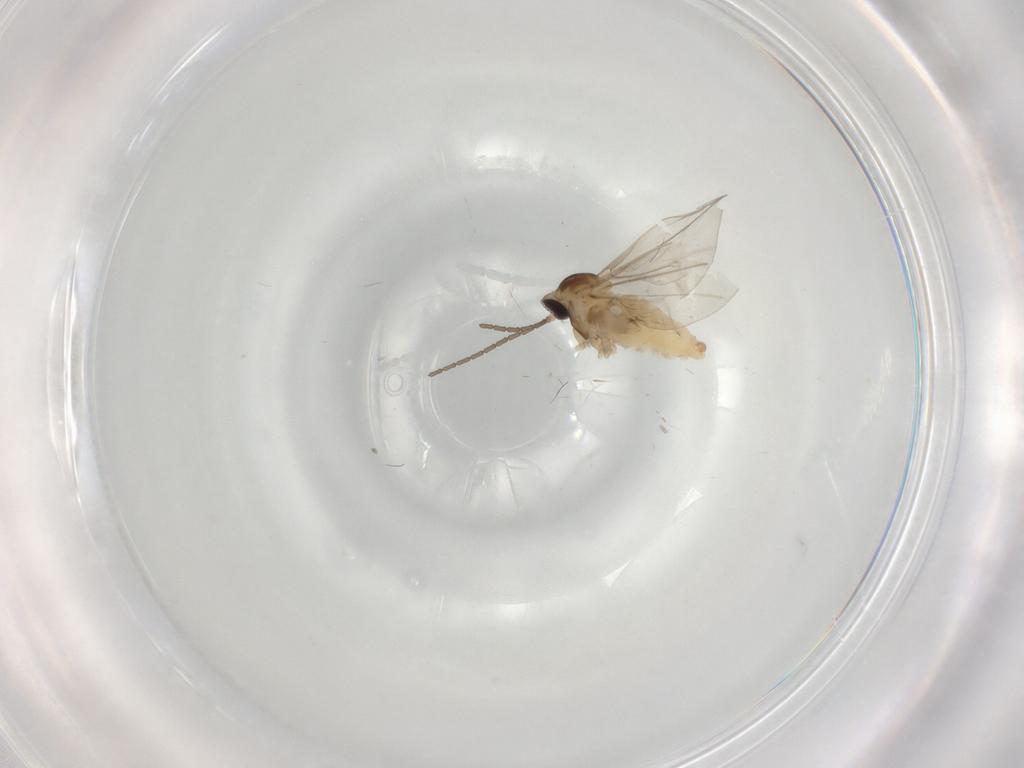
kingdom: Animalia
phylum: Arthropoda
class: Insecta
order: Diptera
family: Cecidomyiidae
